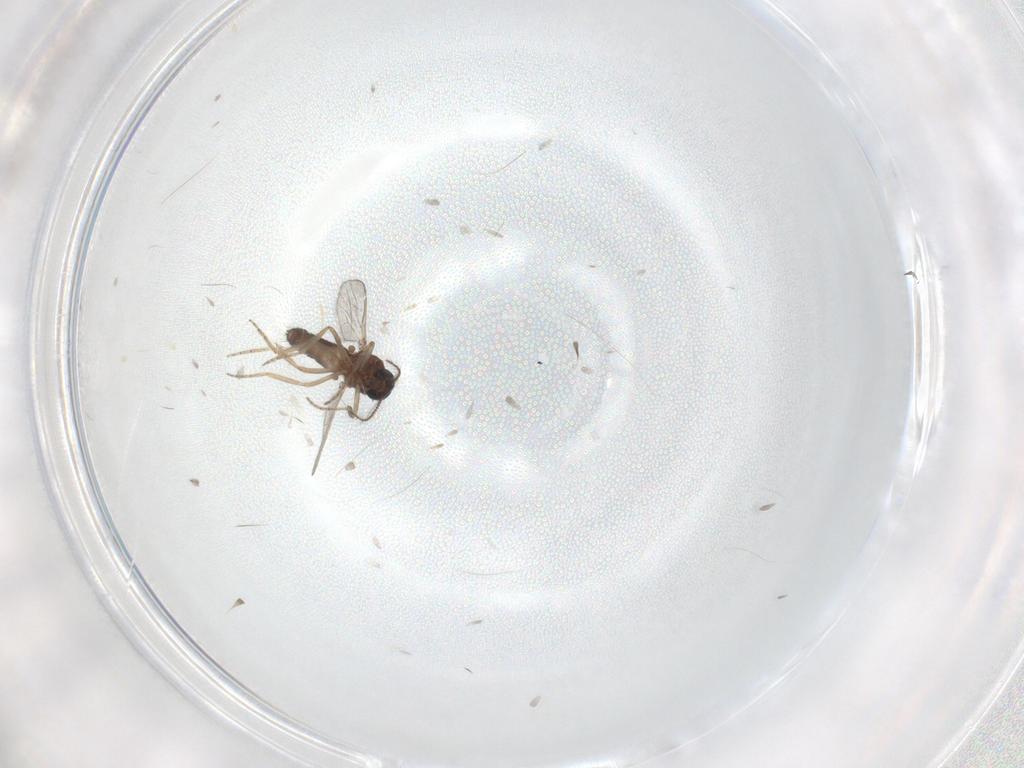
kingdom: Animalia
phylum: Arthropoda
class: Insecta
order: Diptera
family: Ceratopogonidae
